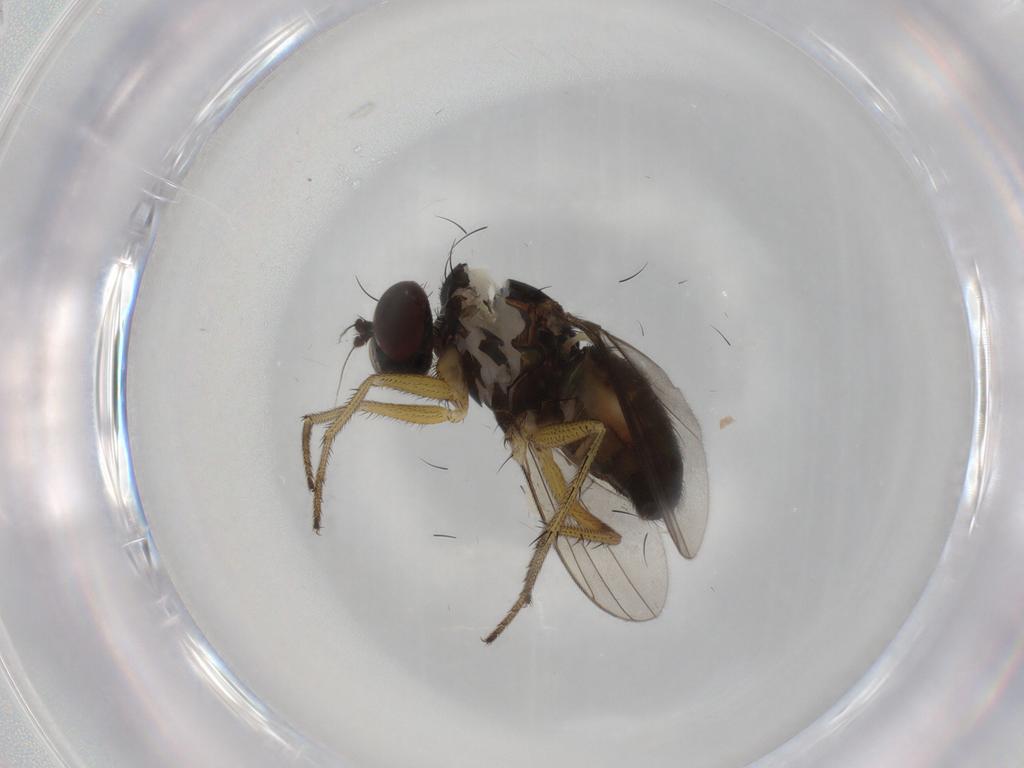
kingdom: Animalia
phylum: Arthropoda
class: Insecta
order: Diptera
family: Dolichopodidae
